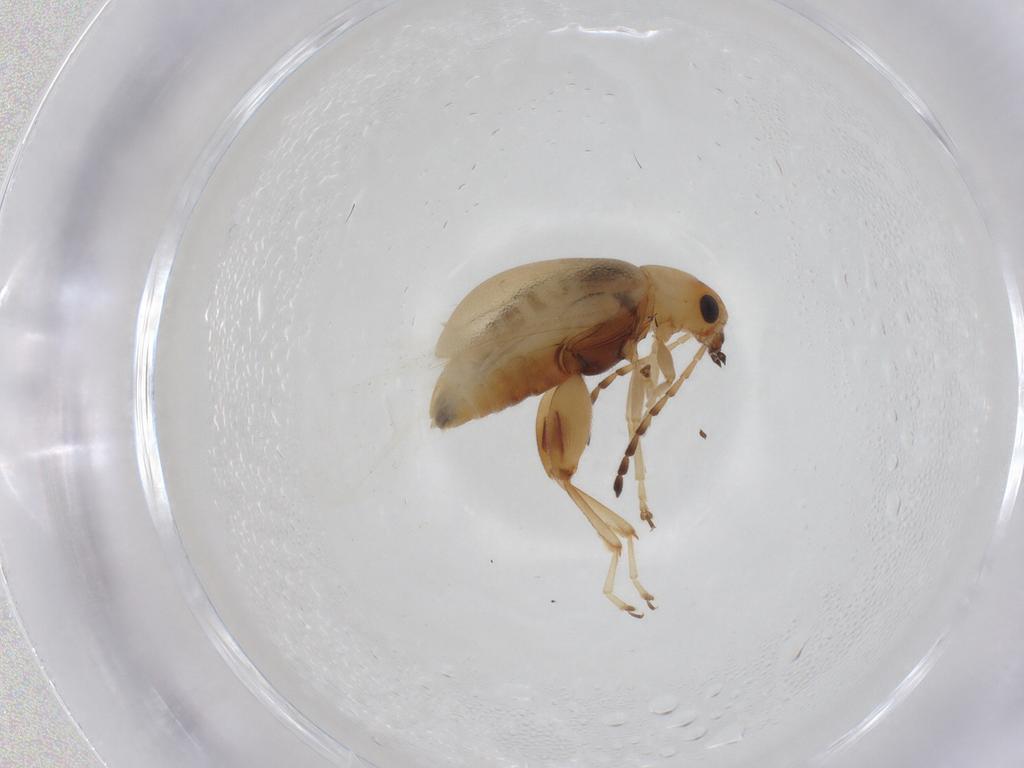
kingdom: Animalia
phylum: Arthropoda
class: Insecta
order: Coleoptera
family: Chrysomelidae
